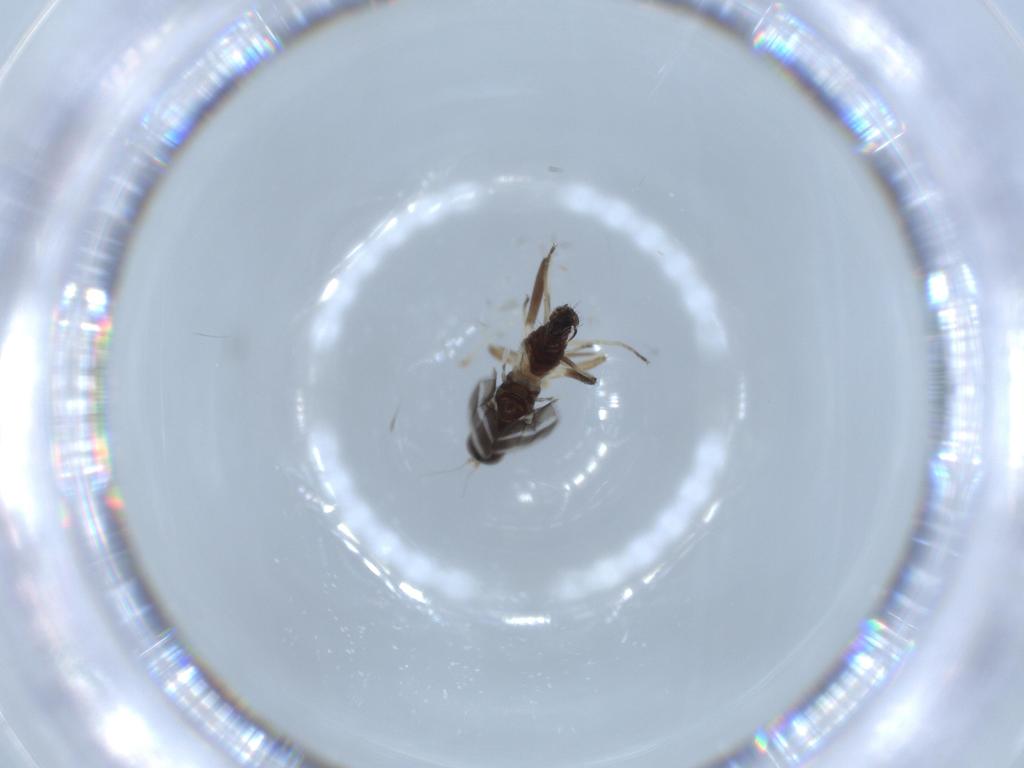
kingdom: Animalia
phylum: Arthropoda
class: Insecta
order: Diptera
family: Hybotidae
